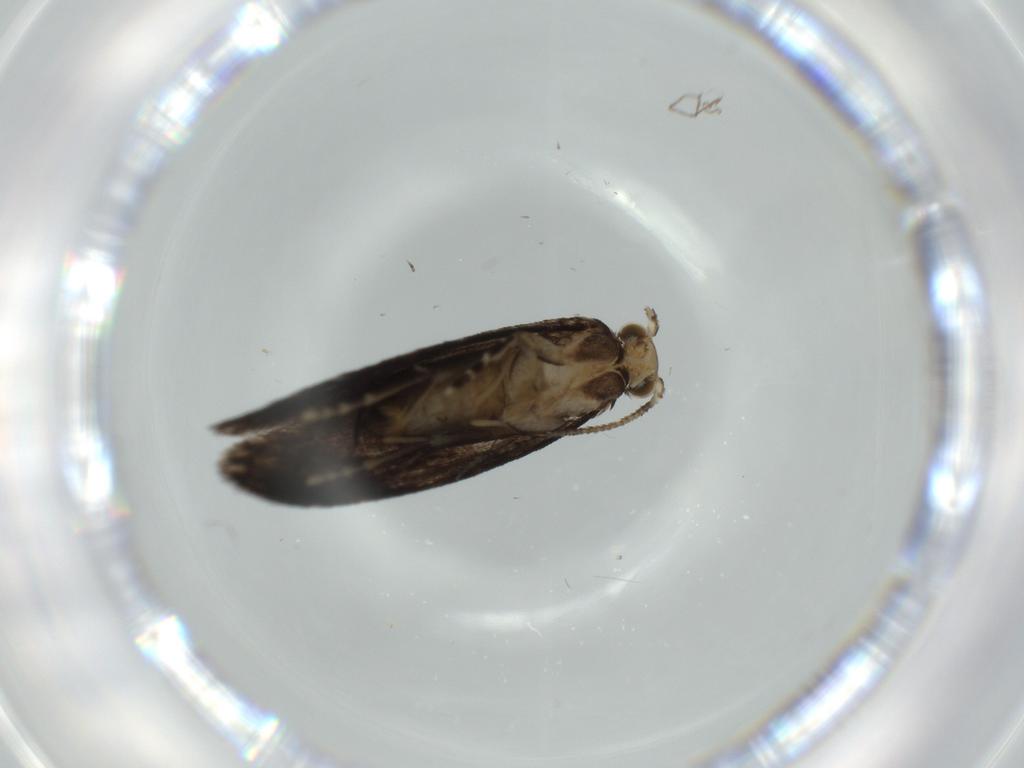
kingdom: Animalia
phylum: Arthropoda
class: Insecta
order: Lepidoptera
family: Tineidae
